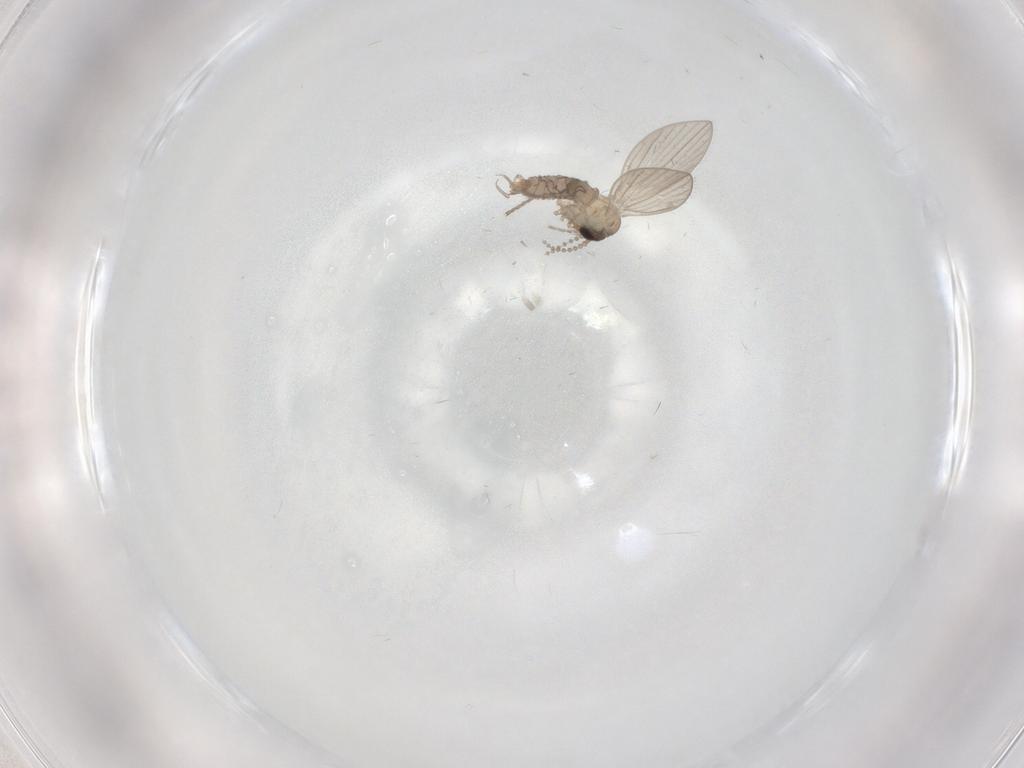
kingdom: Animalia
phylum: Arthropoda
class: Insecta
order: Diptera
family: Psychodidae
